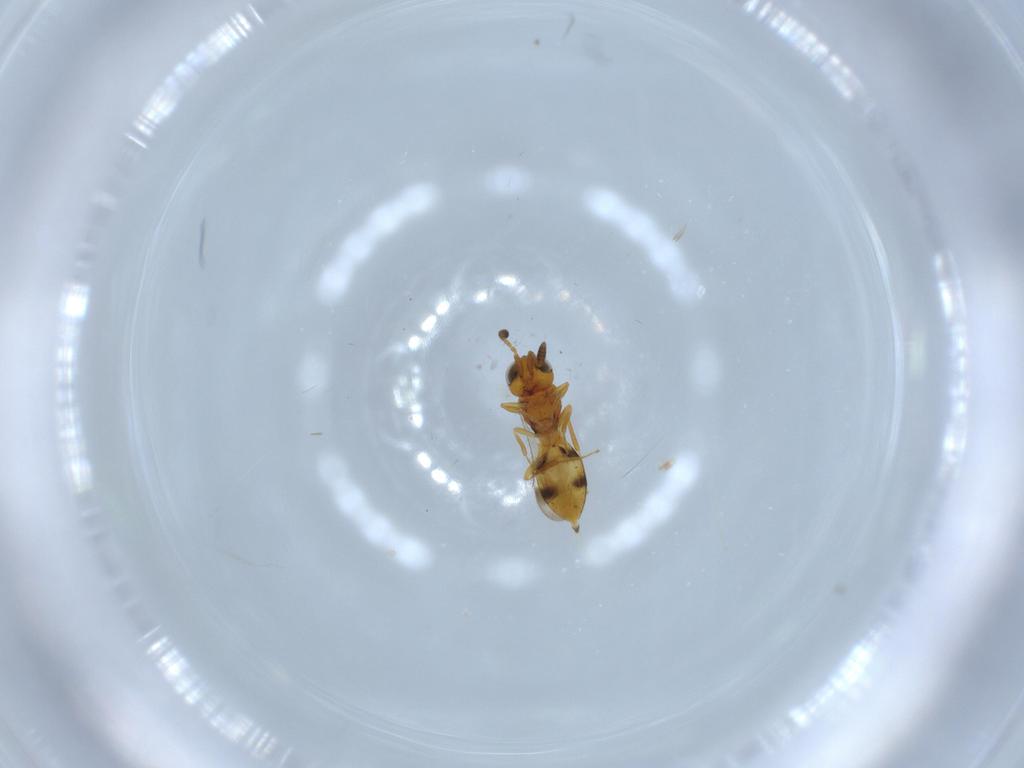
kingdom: Animalia
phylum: Arthropoda
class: Insecta
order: Hymenoptera
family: Scelionidae
